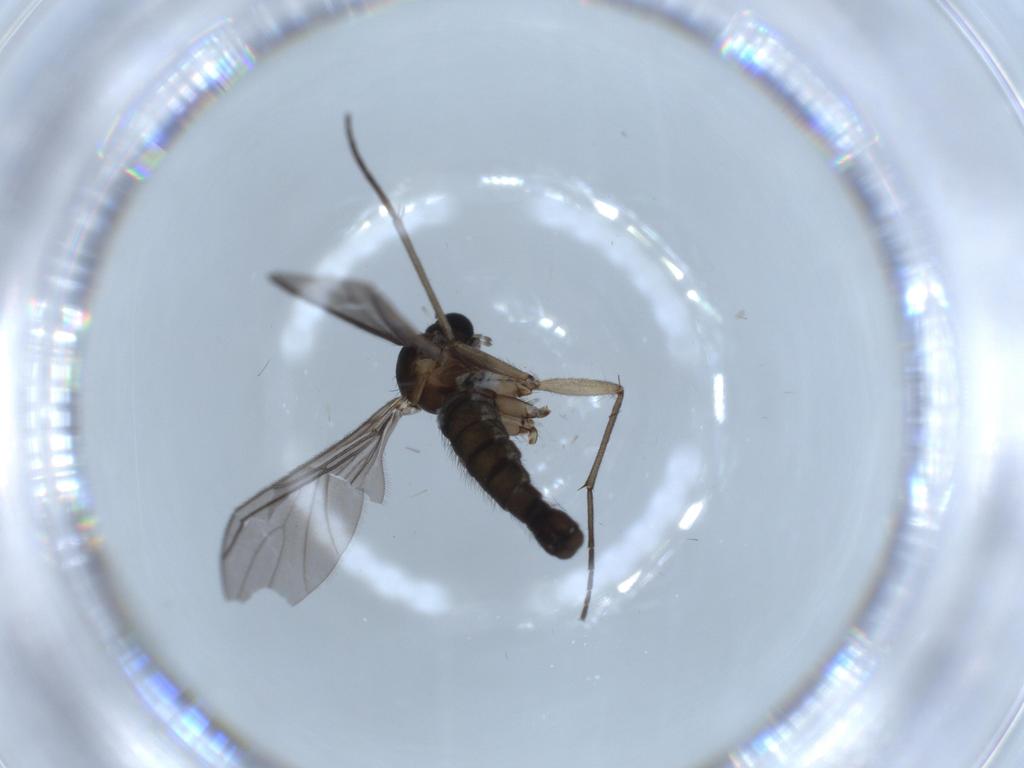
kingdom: Animalia
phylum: Arthropoda
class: Insecta
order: Diptera
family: Sciaridae
